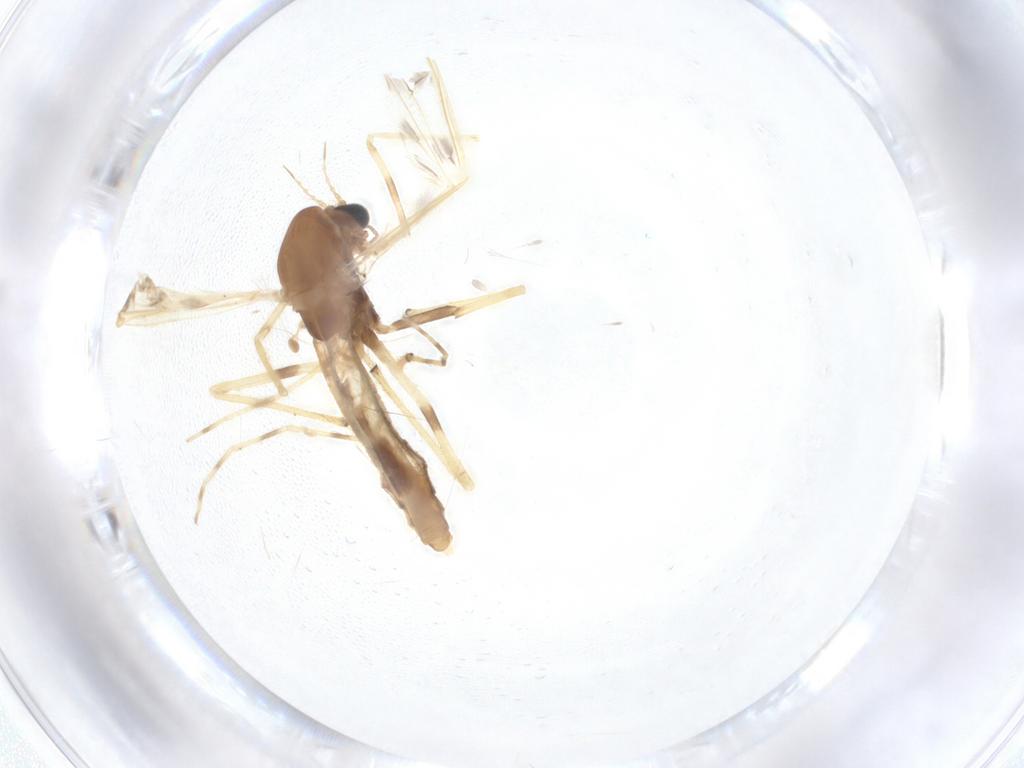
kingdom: Animalia
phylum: Arthropoda
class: Insecta
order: Diptera
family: Chironomidae
